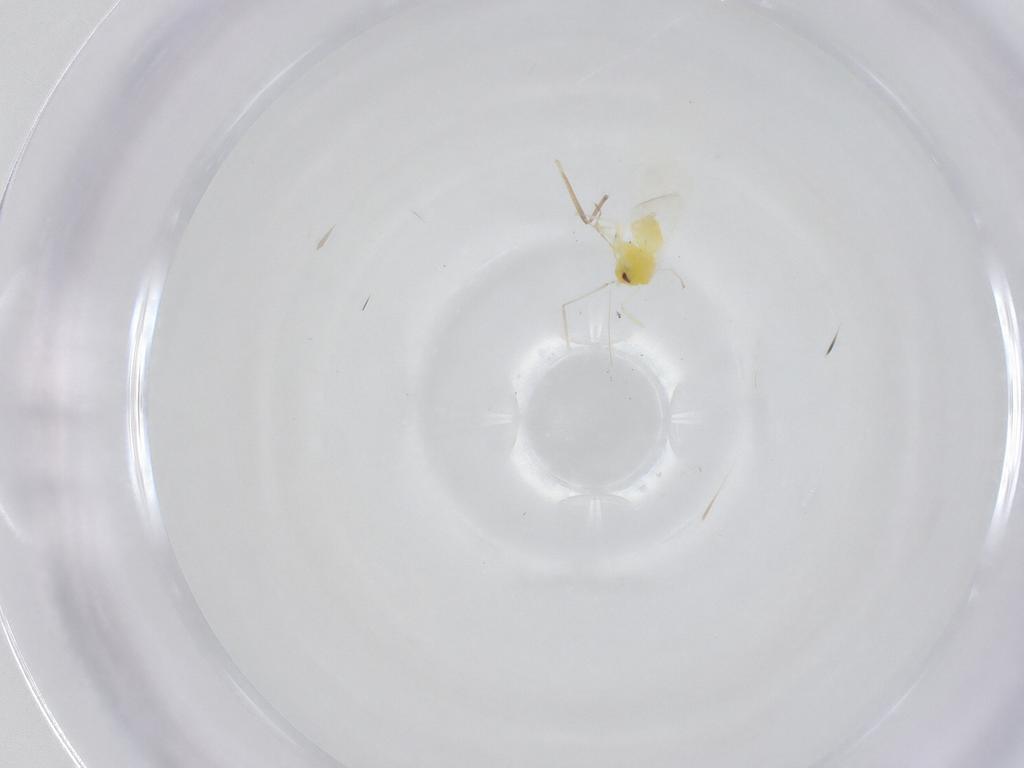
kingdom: Animalia
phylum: Arthropoda
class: Insecta
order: Hemiptera
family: Aleyrodidae
